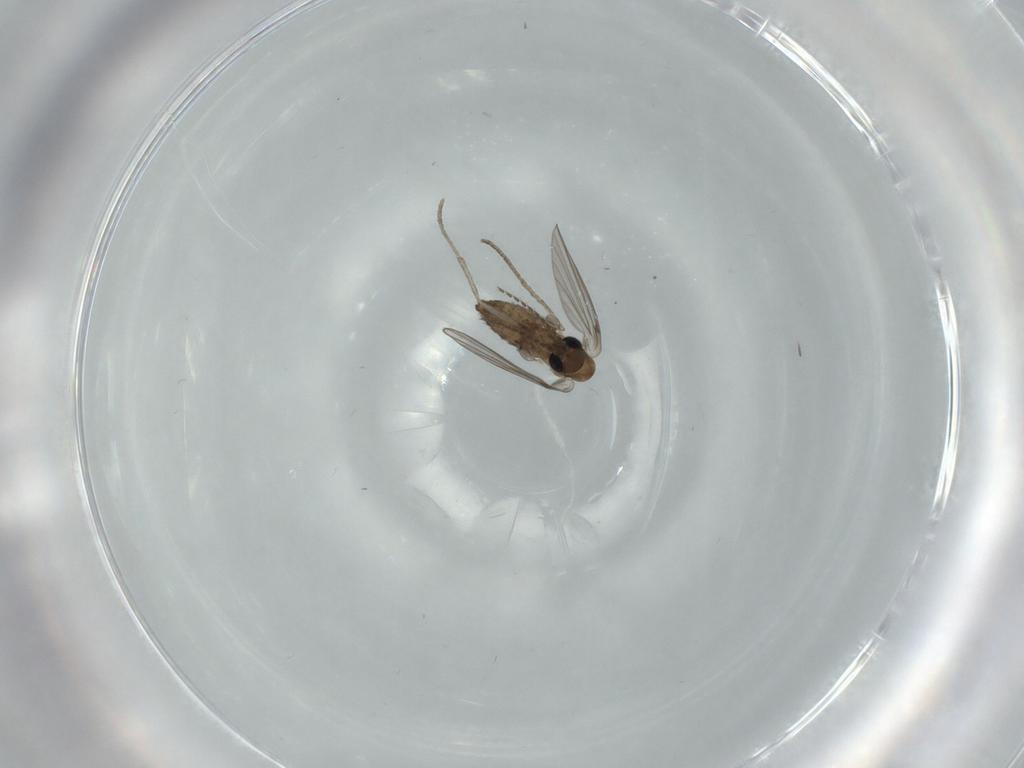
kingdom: Animalia
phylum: Arthropoda
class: Insecta
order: Diptera
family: Psychodidae
